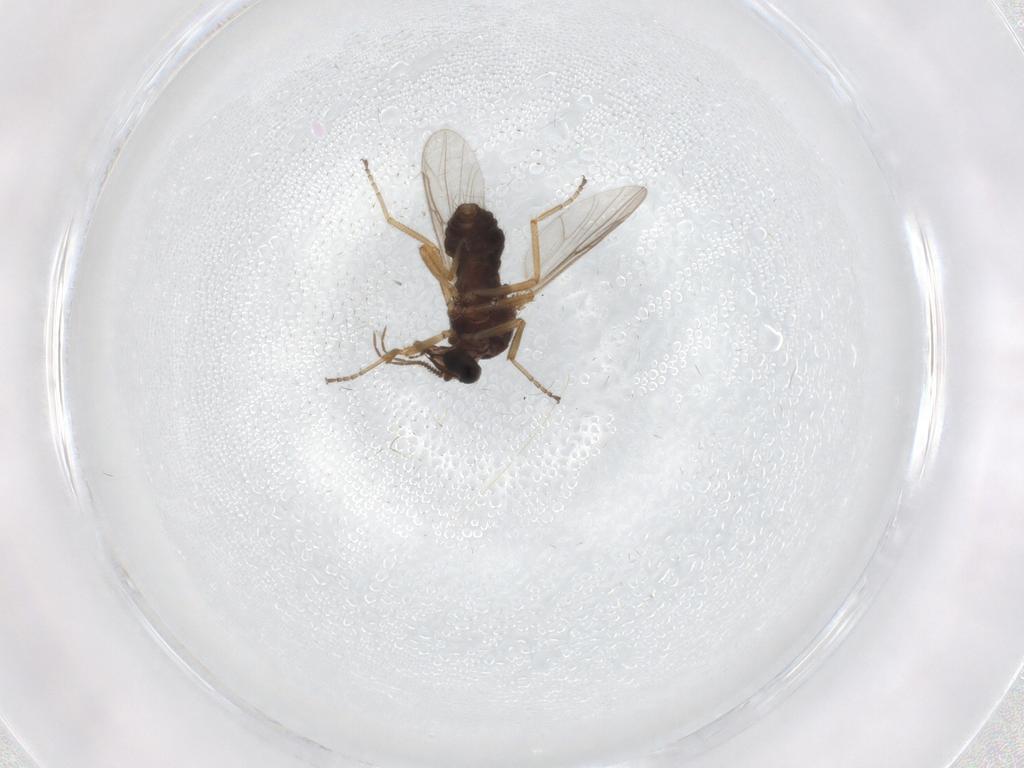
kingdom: Animalia
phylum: Arthropoda
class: Insecta
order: Diptera
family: Ceratopogonidae
